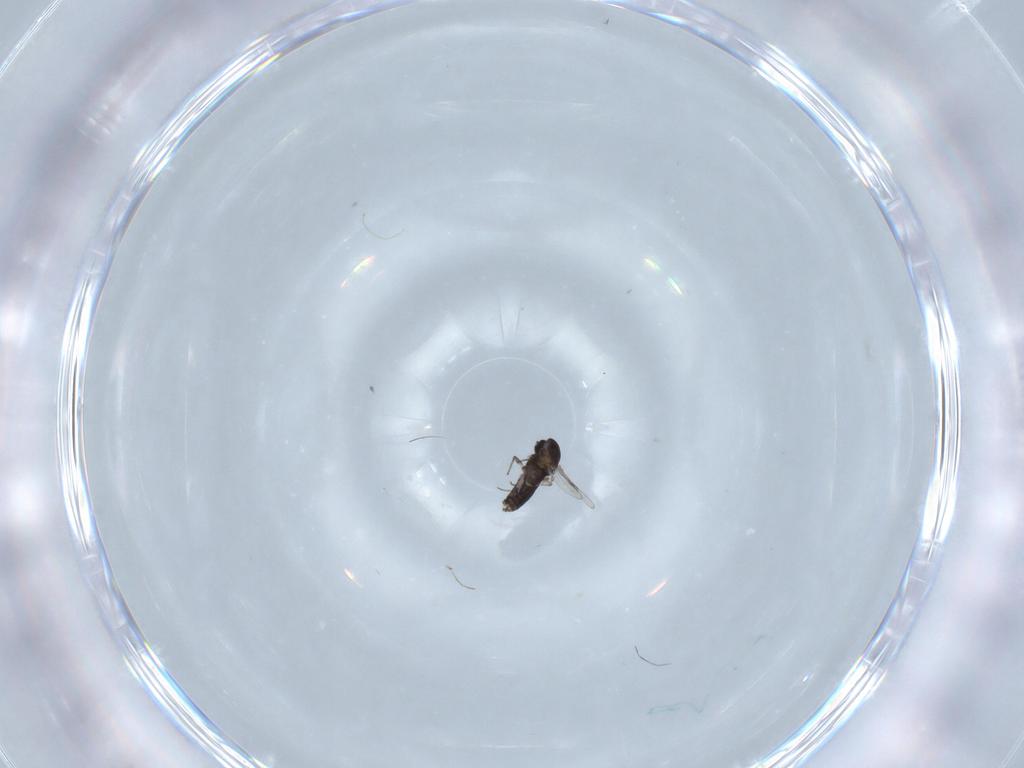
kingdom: Animalia
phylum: Arthropoda
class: Insecta
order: Diptera
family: Chironomidae
